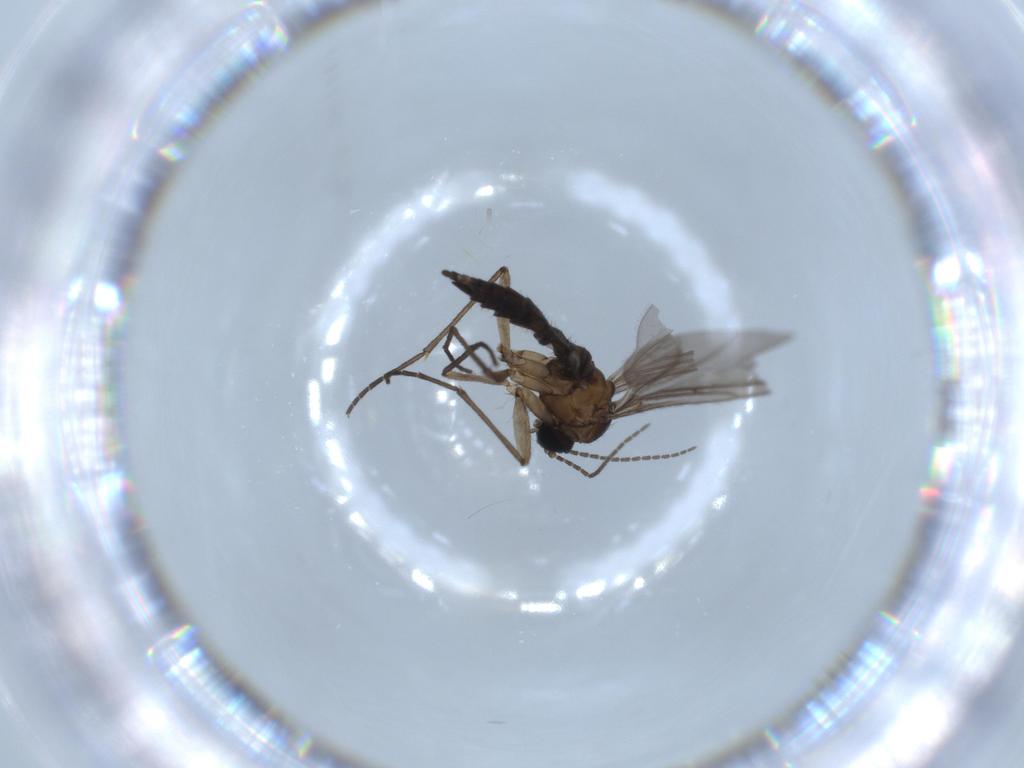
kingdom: Animalia
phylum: Arthropoda
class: Insecta
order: Diptera
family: Sciaridae
